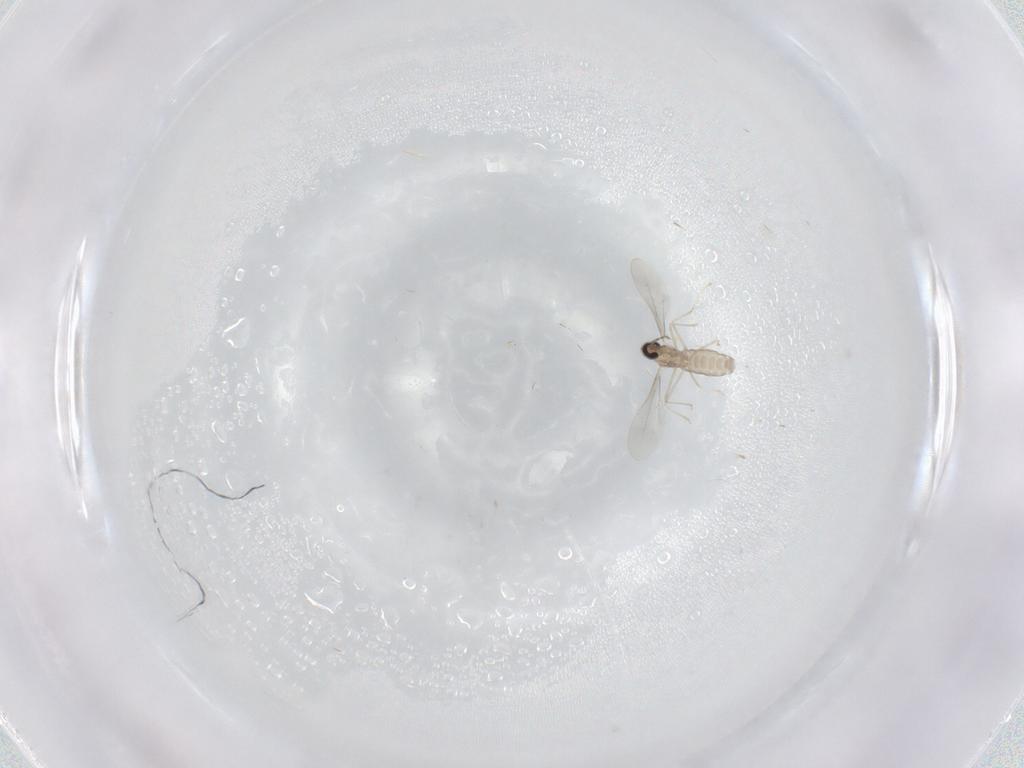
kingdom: Animalia
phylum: Arthropoda
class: Insecta
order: Diptera
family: Cecidomyiidae
